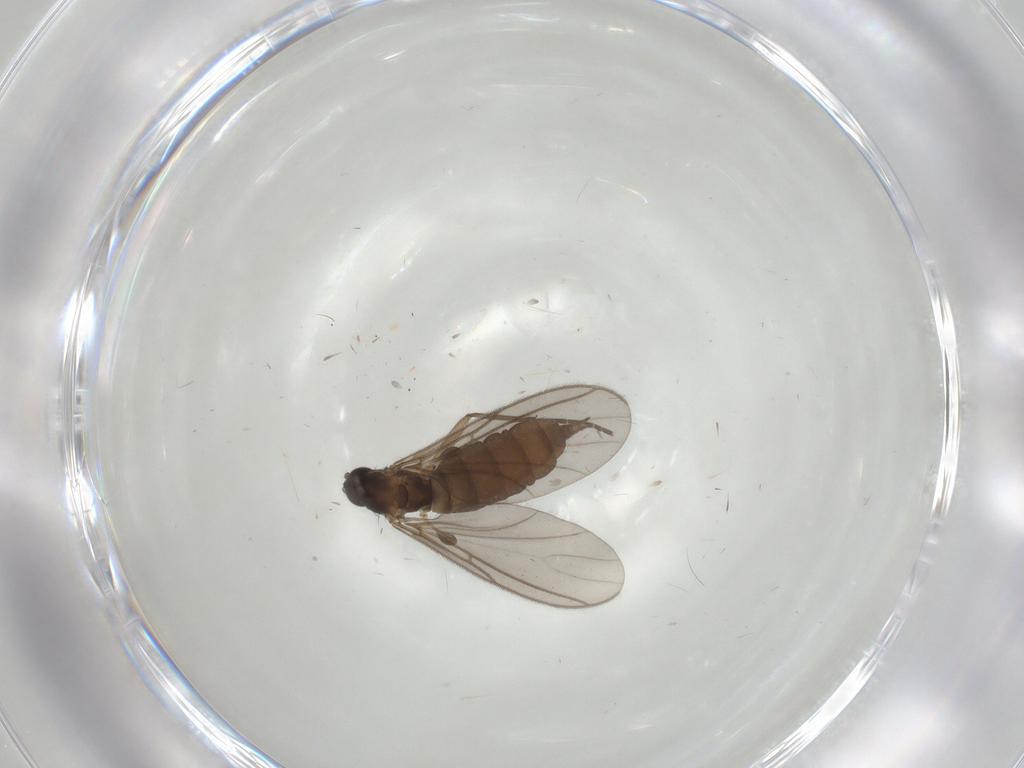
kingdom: Animalia
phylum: Arthropoda
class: Insecta
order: Diptera
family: Sciaridae
